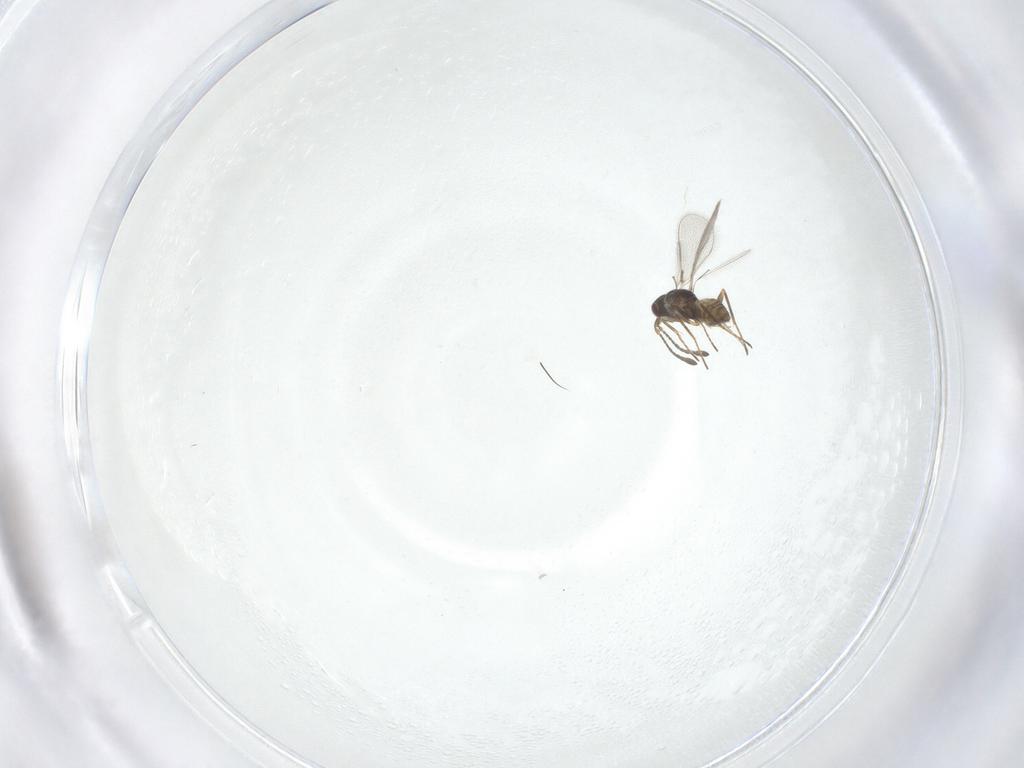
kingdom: Animalia
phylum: Arthropoda
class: Insecta
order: Hymenoptera
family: Mymaridae
